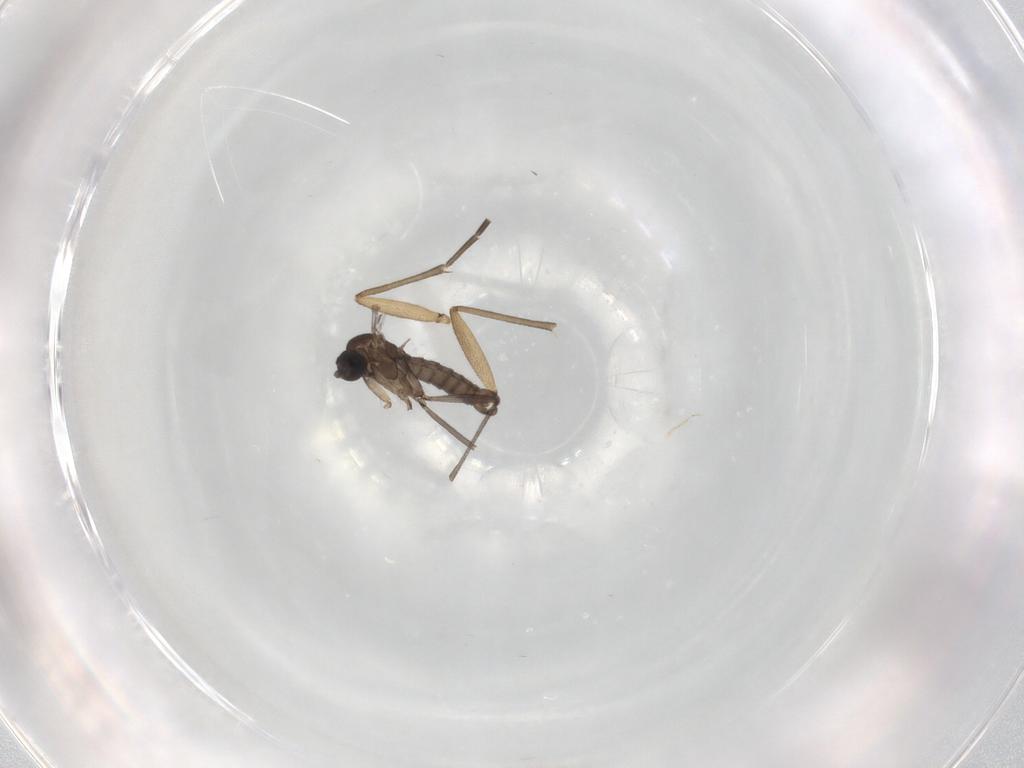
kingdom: Animalia
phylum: Arthropoda
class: Insecta
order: Diptera
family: Sciaridae
